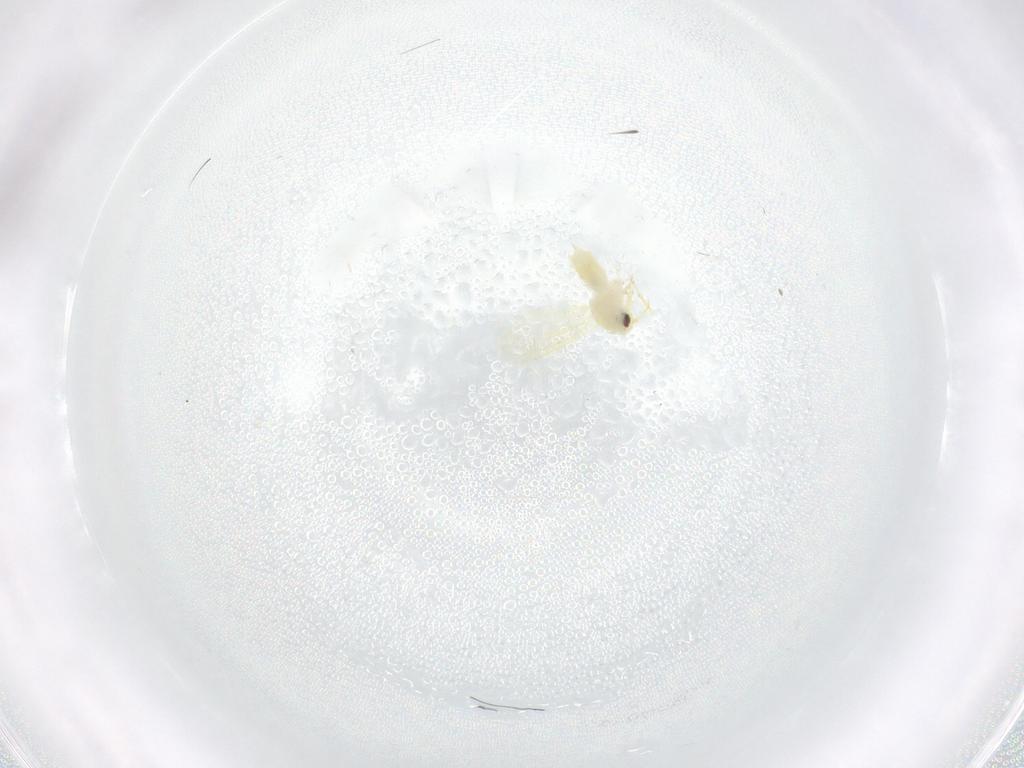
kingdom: Animalia
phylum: Arthropoda
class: Insecta
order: Hemiptera
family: Aleyrodidae
